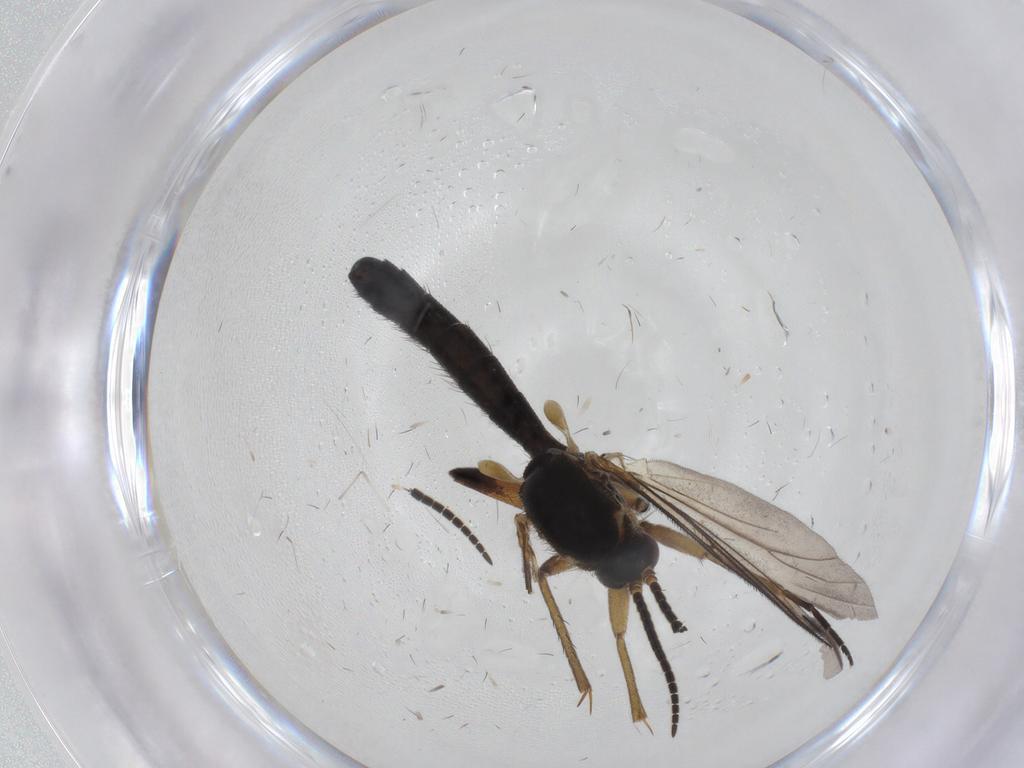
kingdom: Animalia
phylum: Arthropoda
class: Insecta
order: Diptera
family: Mycetophilidae
